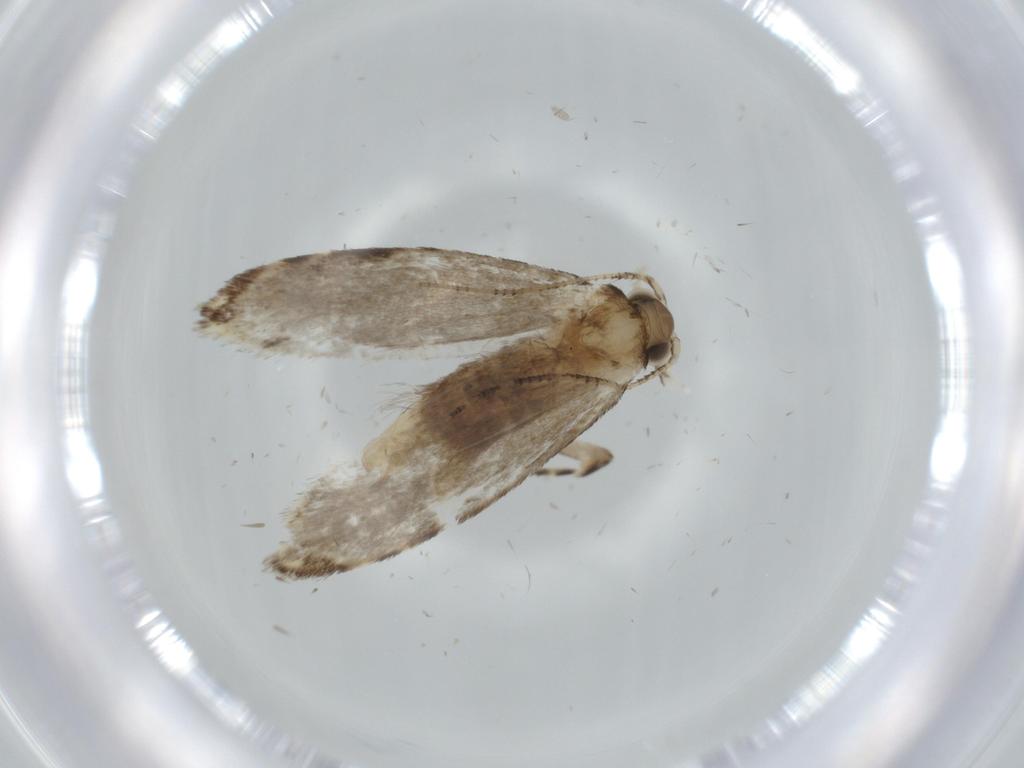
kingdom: Animalia
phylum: Arthropoda
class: Insecta
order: Lepidoptera
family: Tineidae
